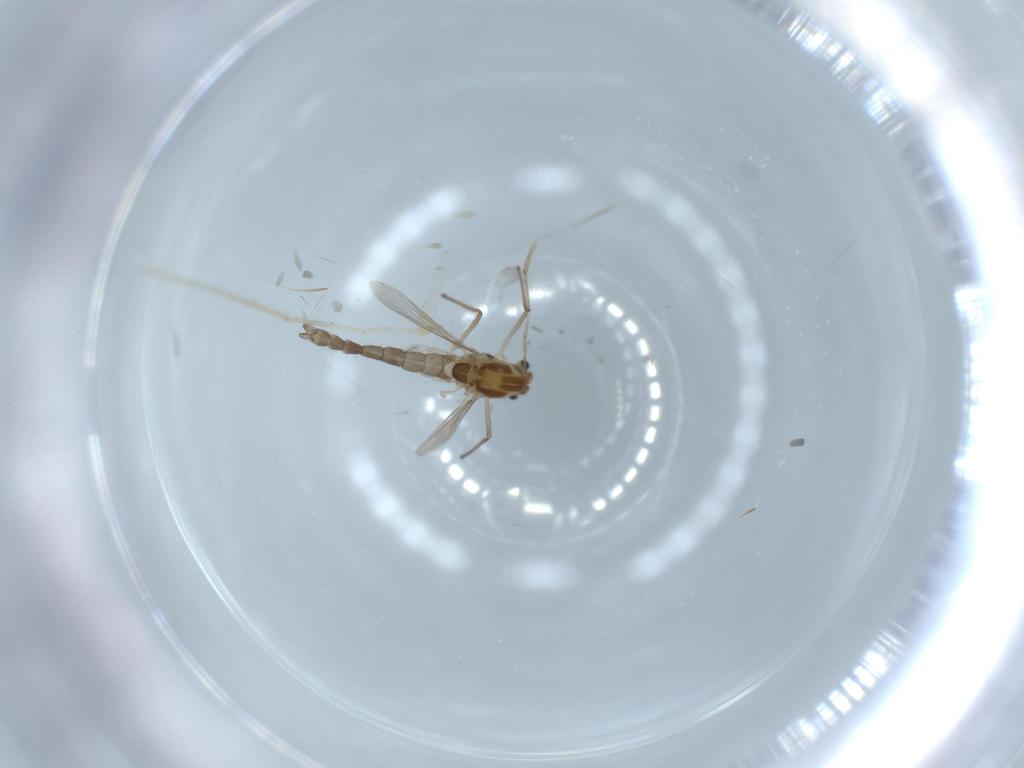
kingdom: Animalia
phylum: Arthropoda
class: Insecta
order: Diptera
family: Chironomidae
